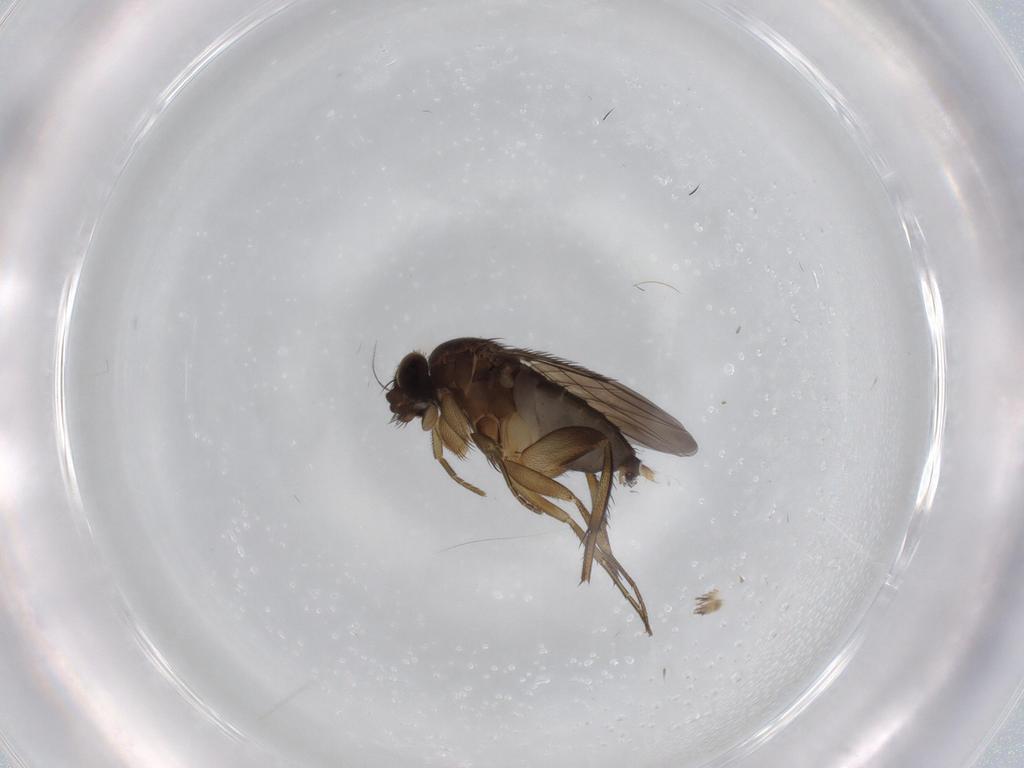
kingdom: Animalia
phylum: Arthropoda
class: Insecta
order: Diptera
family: Phoridae
